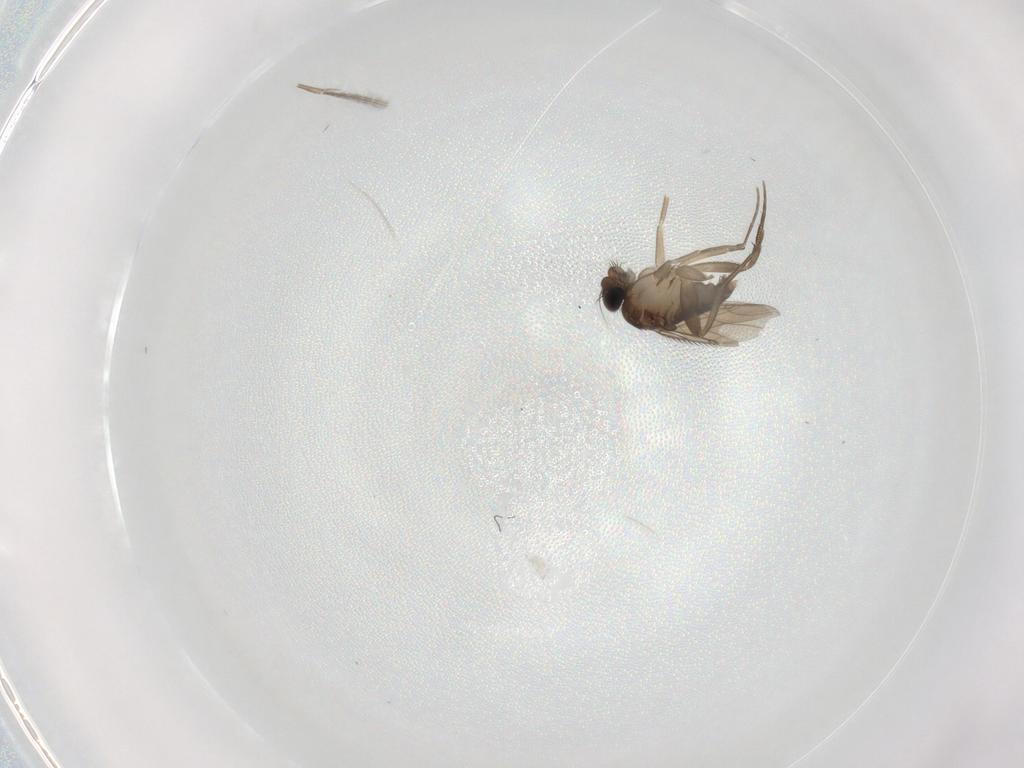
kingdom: Animalia
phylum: Arthropoda
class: Insecta
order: Diptera
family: Phoridae
